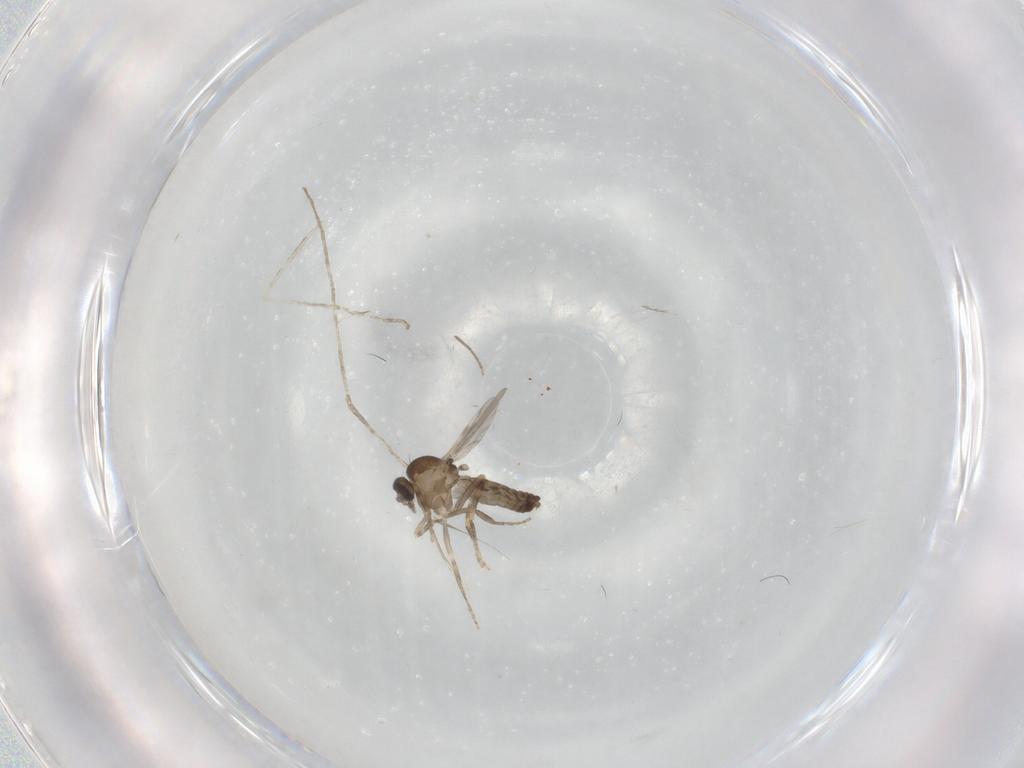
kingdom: Animalia
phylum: Arthropoda
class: Insecta
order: Diptera
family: Ceratopogonidae
